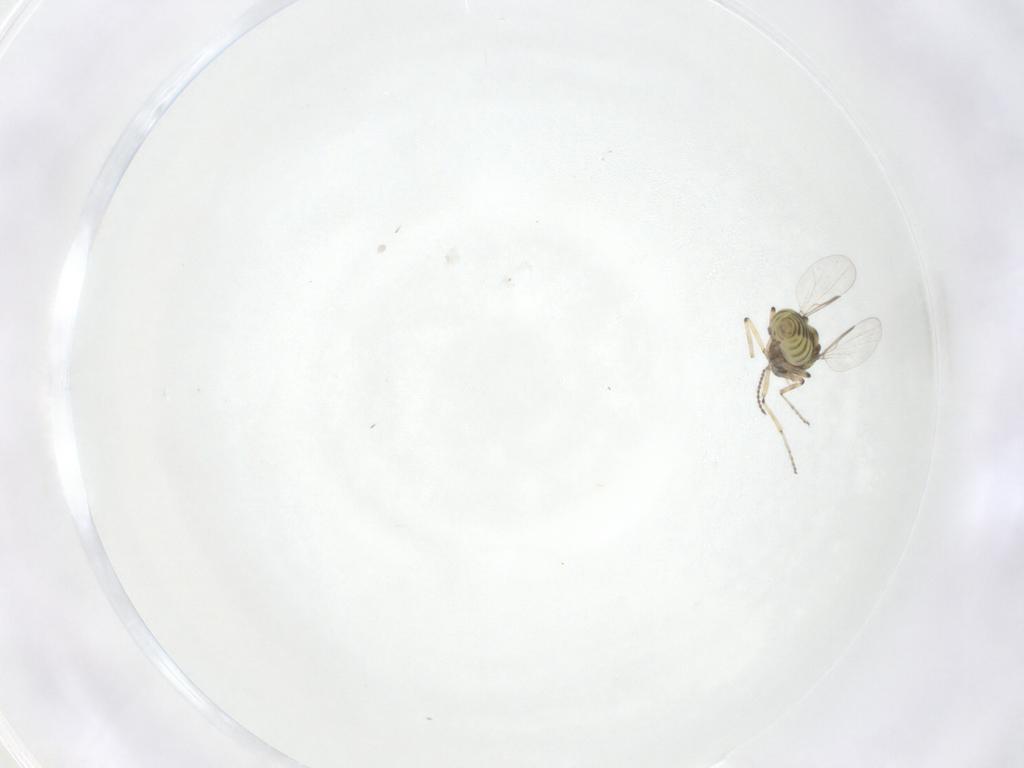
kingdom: Animalia
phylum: Arthropoda
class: Insecta
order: Diptera
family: Ceratopogonidae
